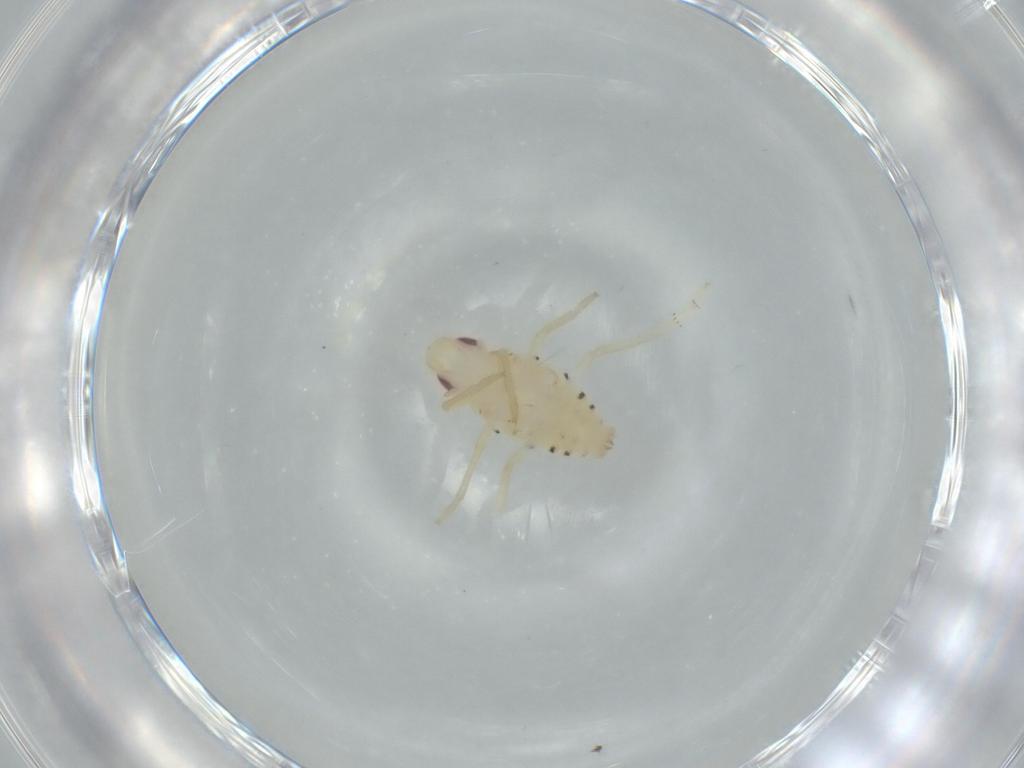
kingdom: Animalia
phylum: Arthropoda
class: Insecta
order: Hemiptera
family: Tropiduchidae
